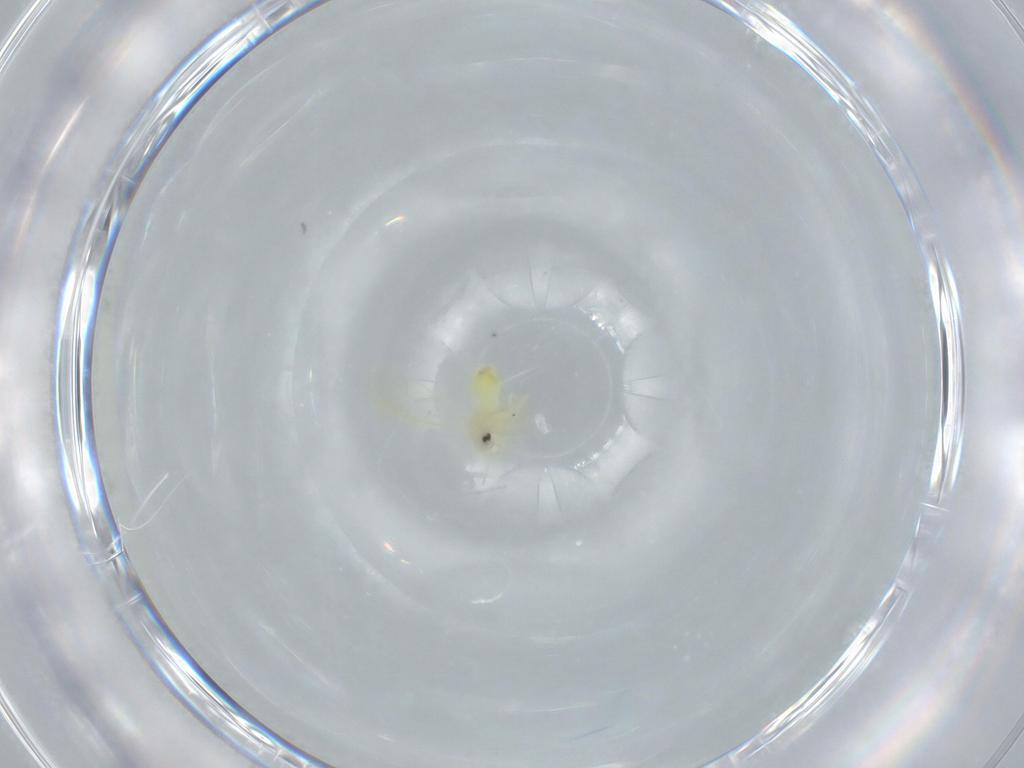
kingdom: Animalia
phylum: Arthropoda
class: Insecta
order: Hemiptera
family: Aleyrodidae
